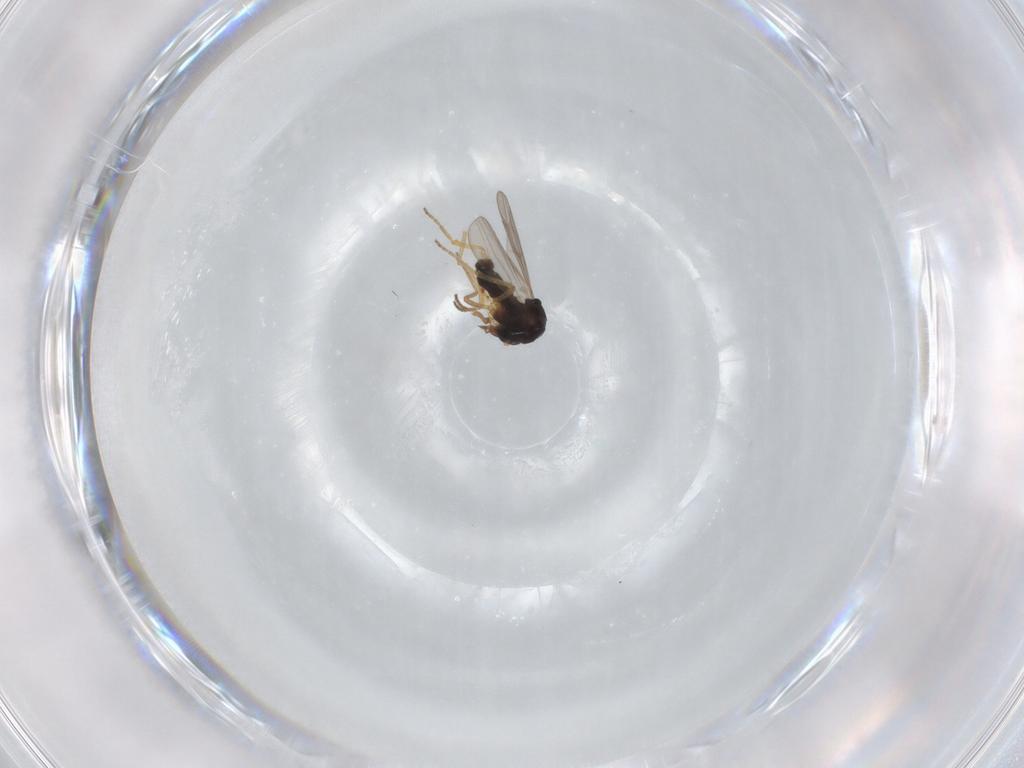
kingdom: Animalia
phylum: Arthropoda
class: Insecta
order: Diptera
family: Ceratopogonidae
